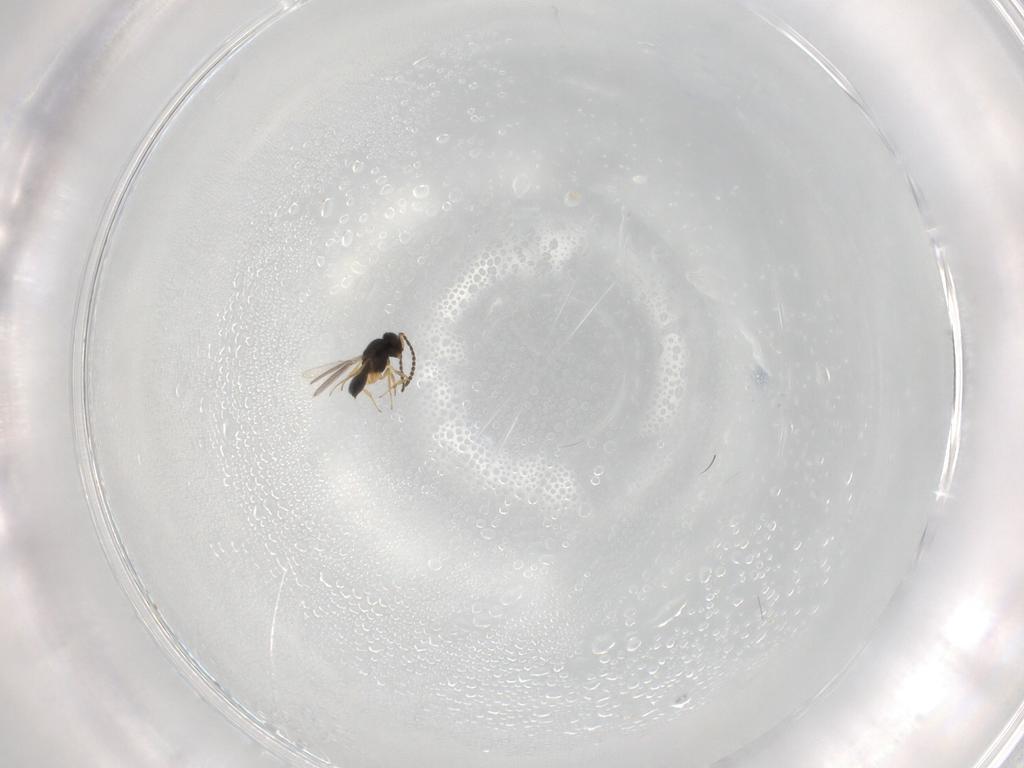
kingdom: Animalia
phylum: Arthropoda
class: Insecta
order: Hymenoptera
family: Scelionidae
